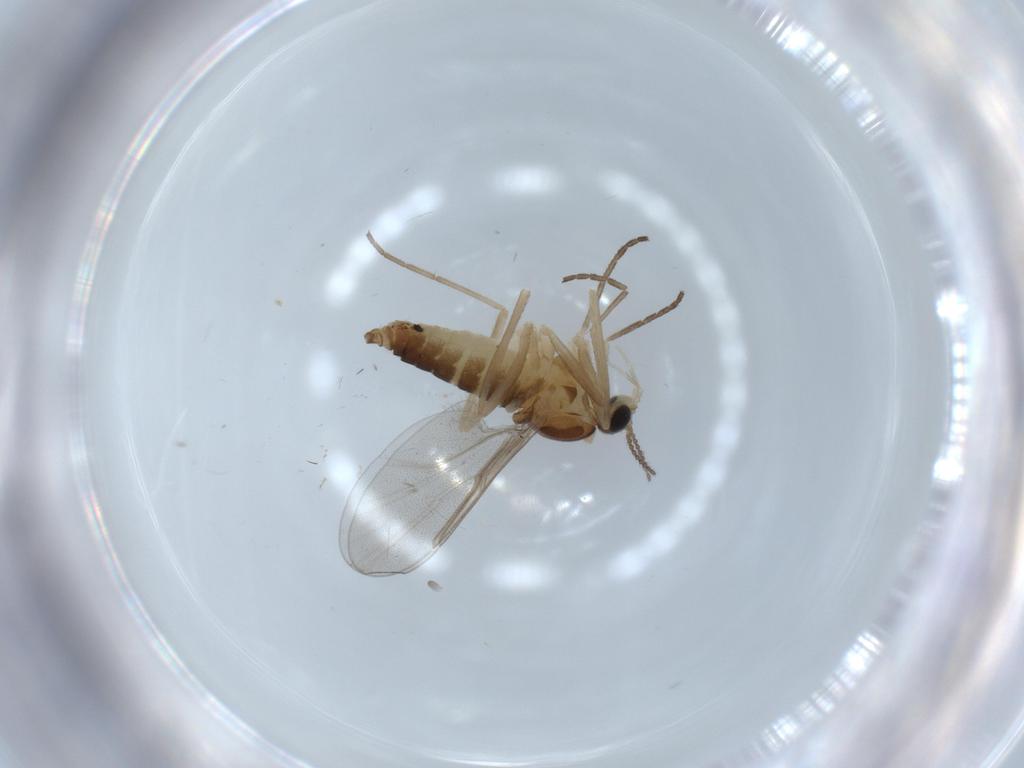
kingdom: Animalia
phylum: Arthropoda
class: Insecta
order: Diptera
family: Cecidomyiidae
